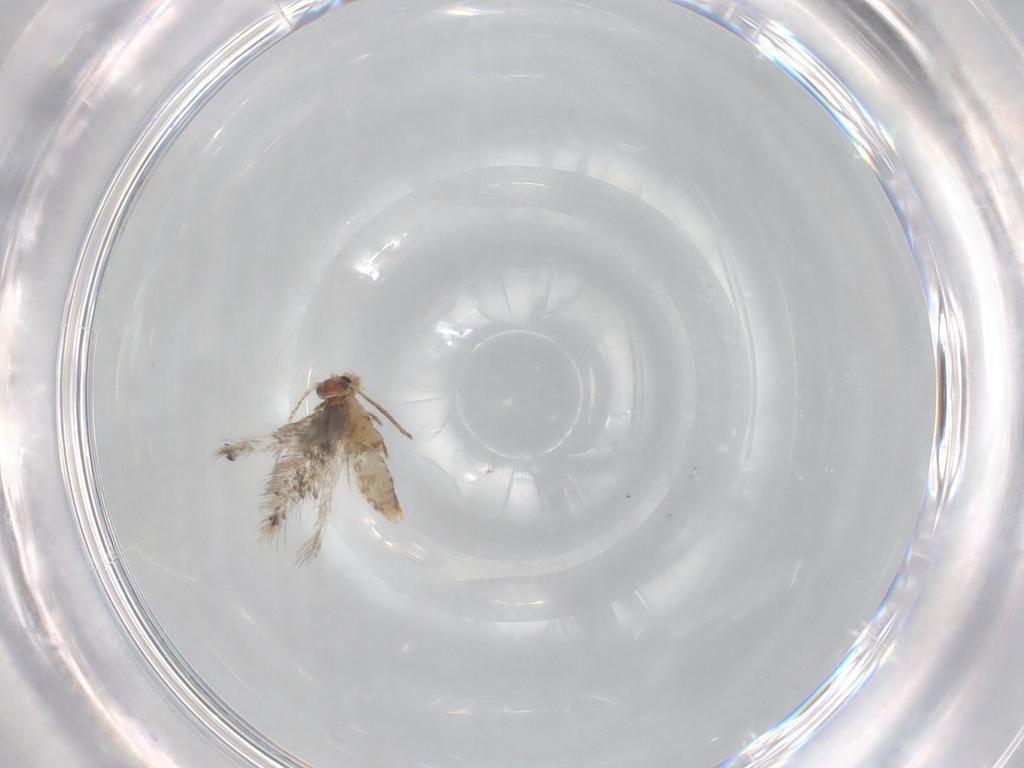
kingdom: Animalia
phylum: Arthropoda
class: Insecta
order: Lepidoptera
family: Nepticulidae
